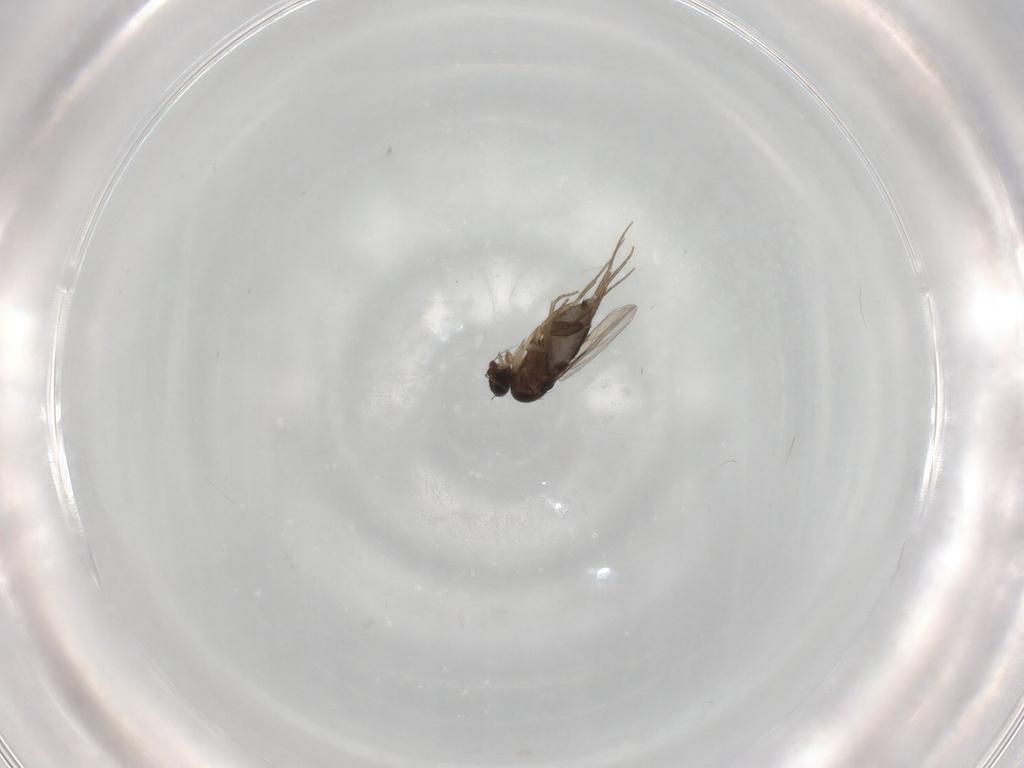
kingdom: Animalia
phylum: Arthropoda
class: Insecta
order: Diptera
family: Phoridae
